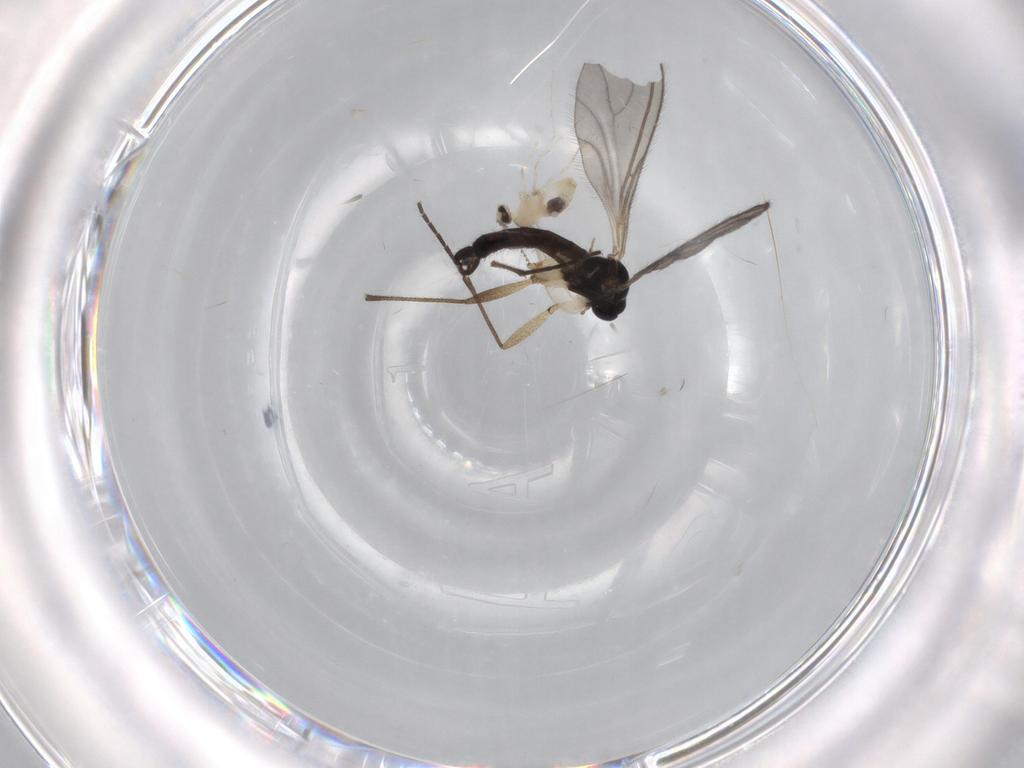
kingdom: Animalia
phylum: Arthropoda
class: Insecta
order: Diptera
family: Sciaridae
